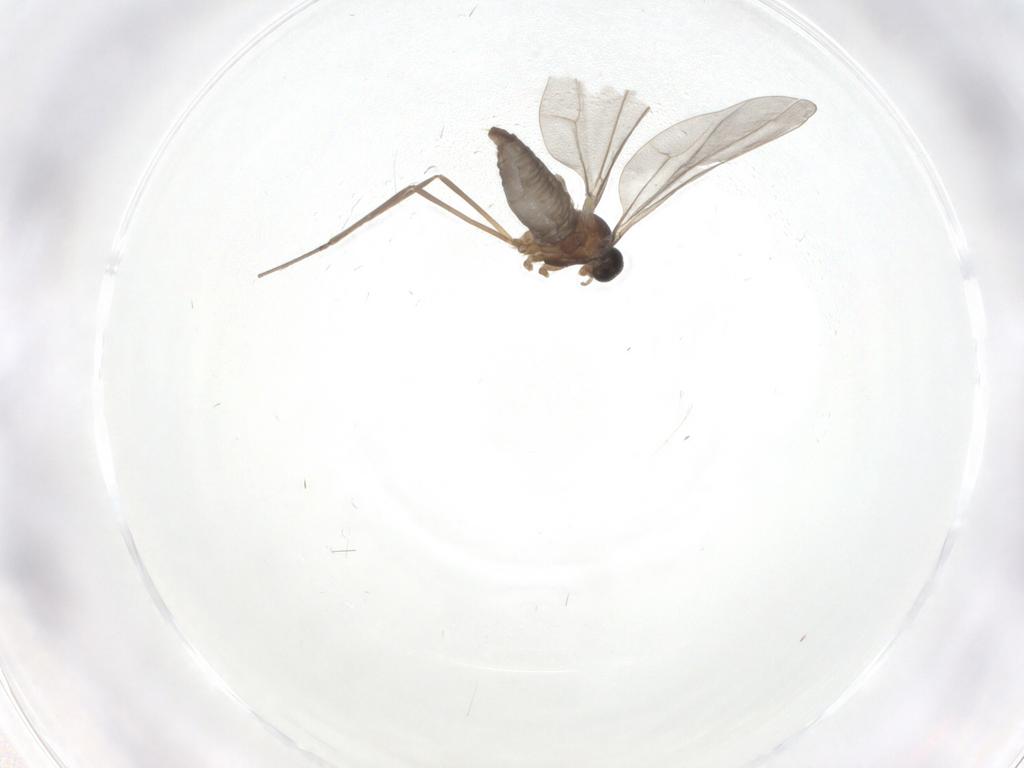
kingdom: Animalia
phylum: Arthropoda
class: Insecta
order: Diptera
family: Cecidomyiidae
